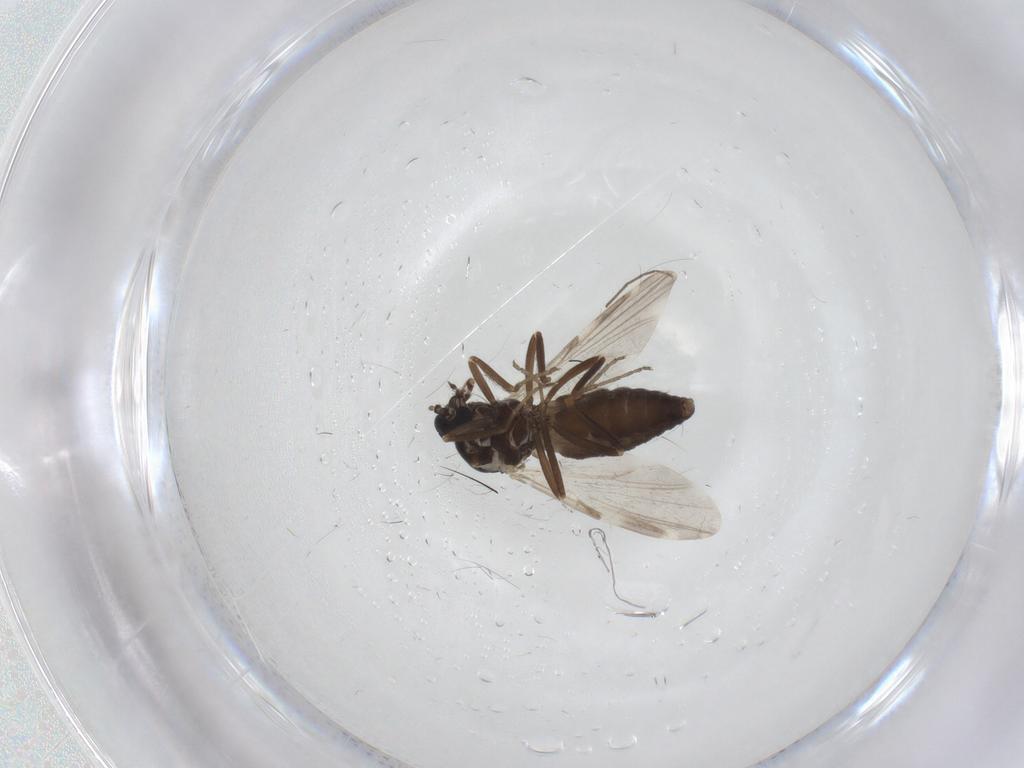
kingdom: Animalia
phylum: Arthropoda
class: Insecta
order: Diptera
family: Ceratopogonidae
